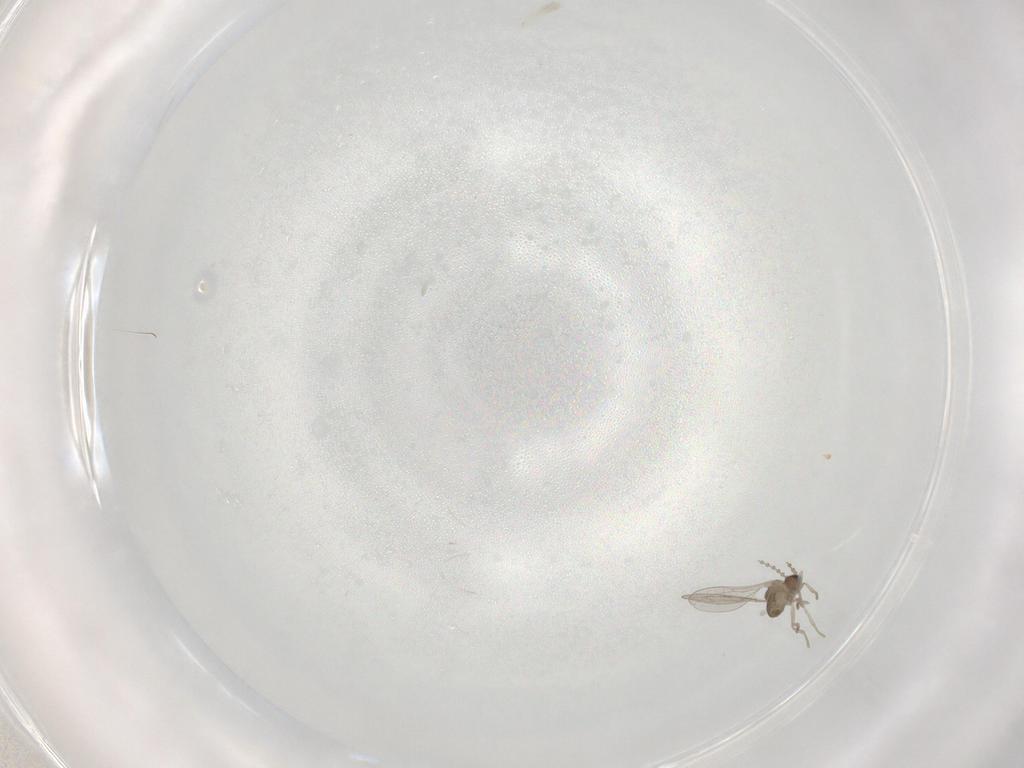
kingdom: Animalia
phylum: Arthropoda
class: Insecta
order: Diptera
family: Cecidomyiidae
